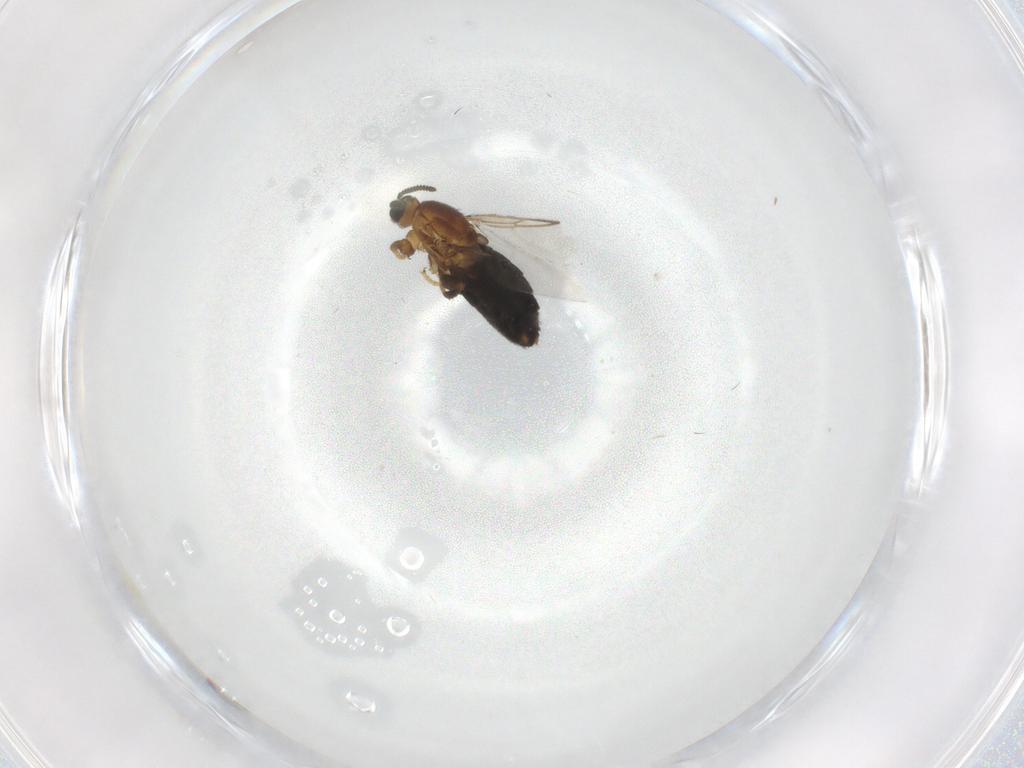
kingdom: Animalia
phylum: Arthropoda
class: Insecta
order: Diptera
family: Scatopsidae
